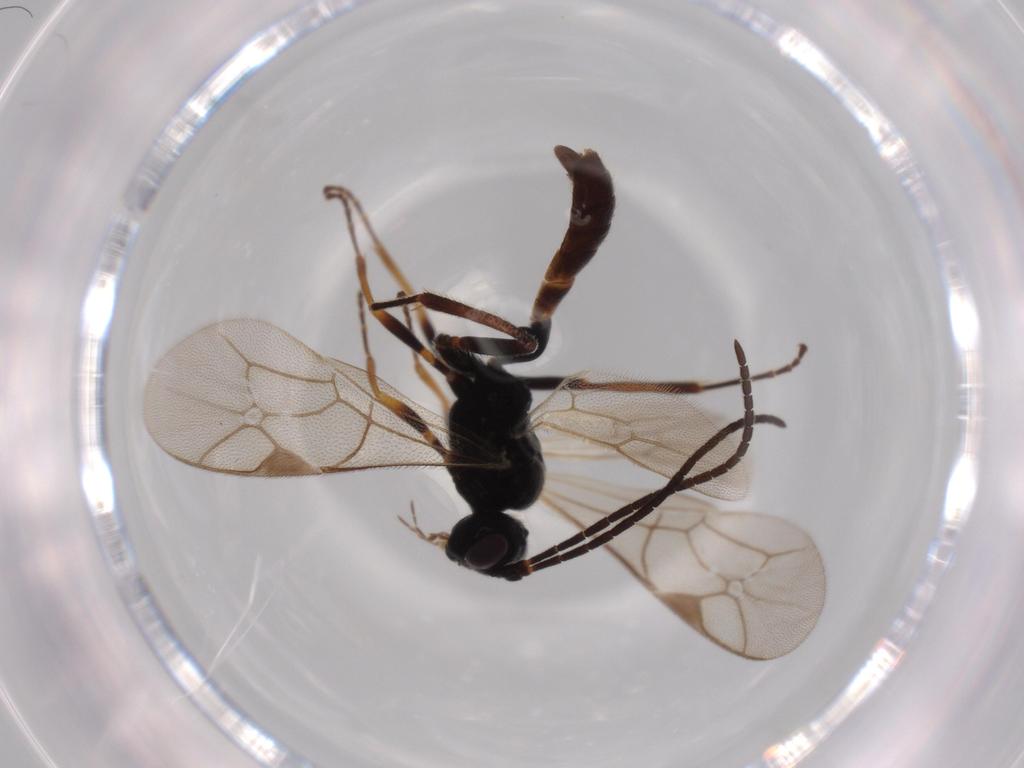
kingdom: Animalia
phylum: Arthropoda
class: Insecta
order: Hymenoptera
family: Ichneumonidae
